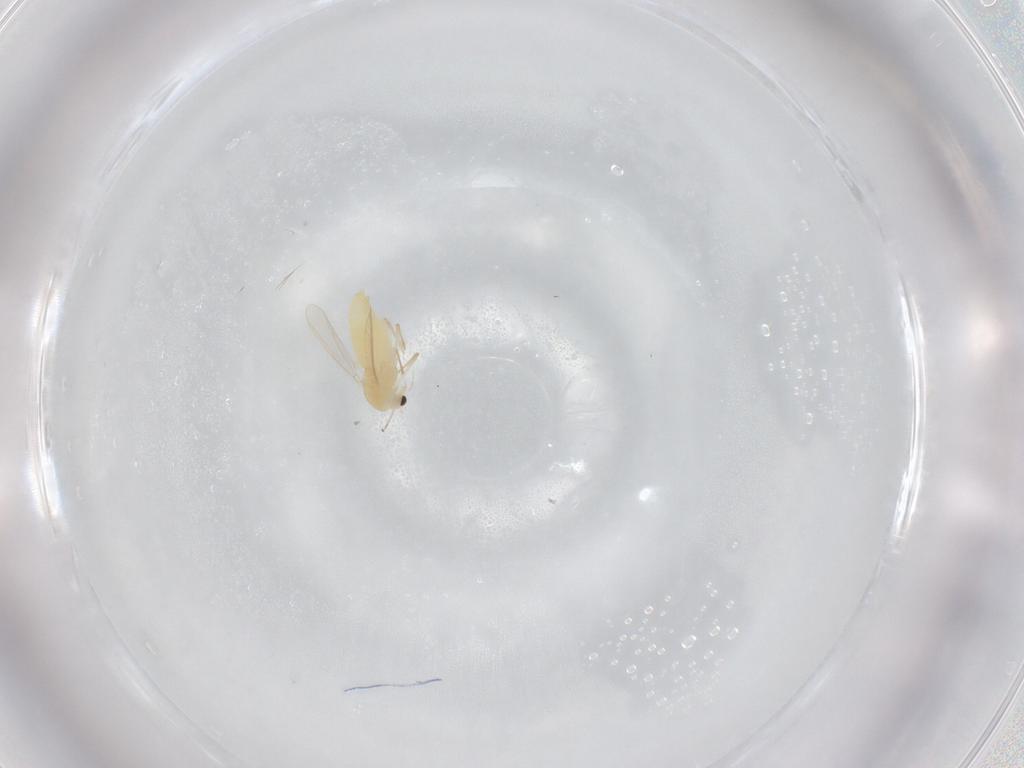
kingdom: Animalia
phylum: Arthropoda
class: Insecta
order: Diptera
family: Chironomidae
